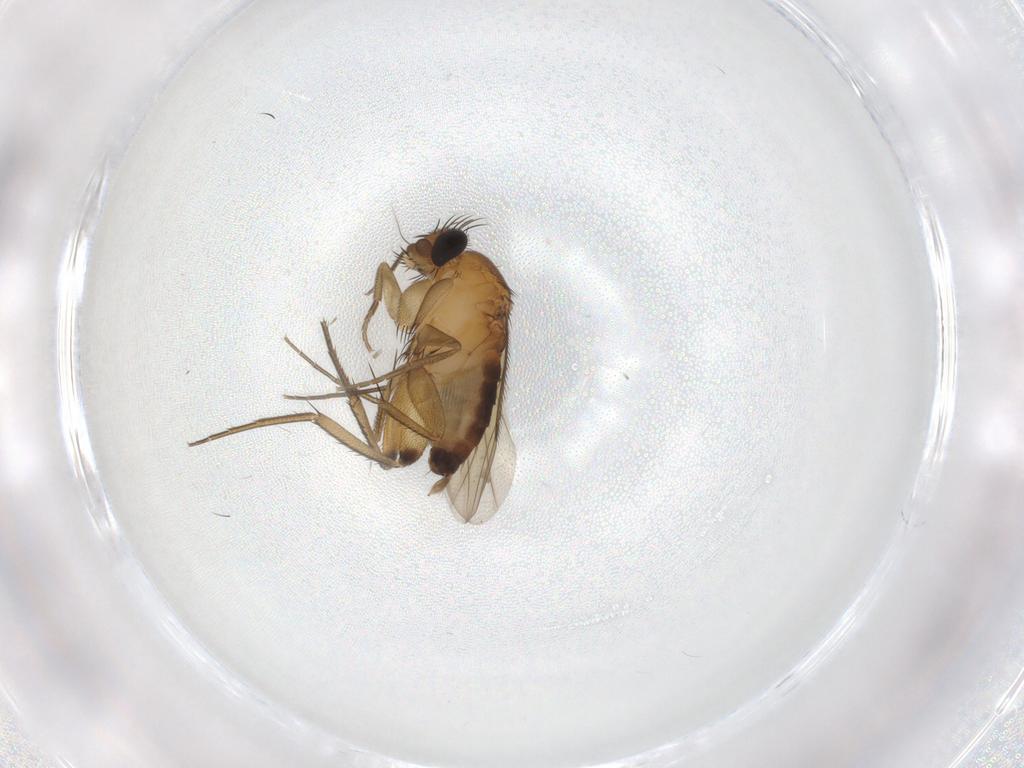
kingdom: Animalia
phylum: Arthropoda
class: Insecta
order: Diptera
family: Phoridae
